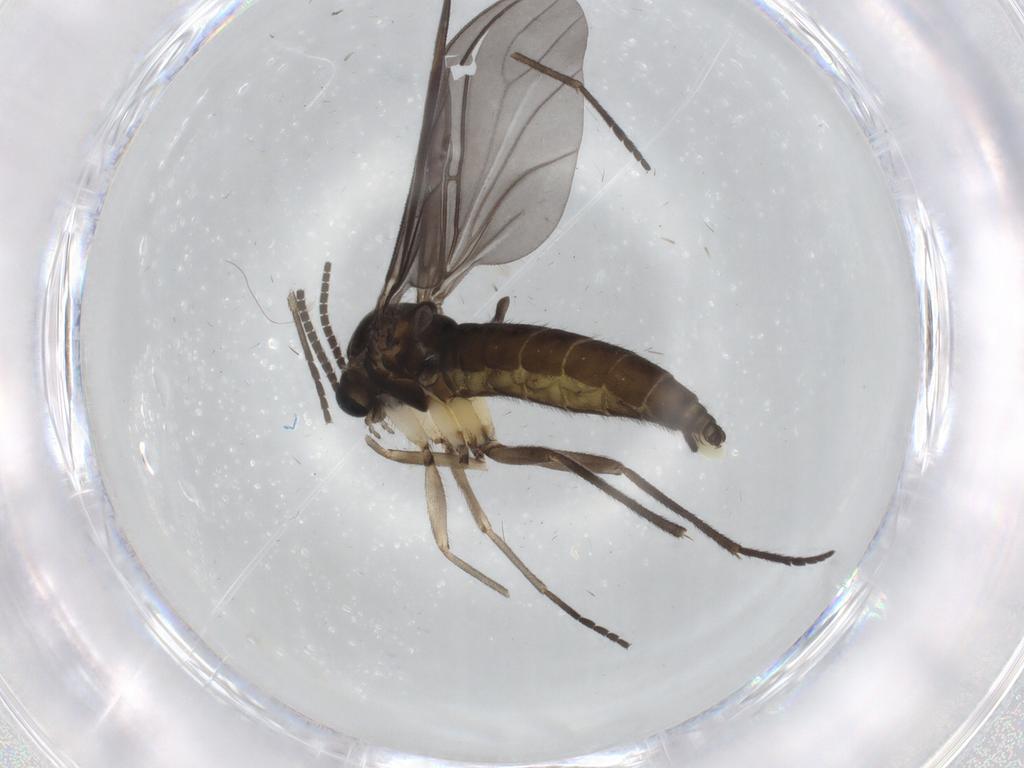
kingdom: Animalia
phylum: Arthropoda
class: Insecta
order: Diptera
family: Sciaridae
